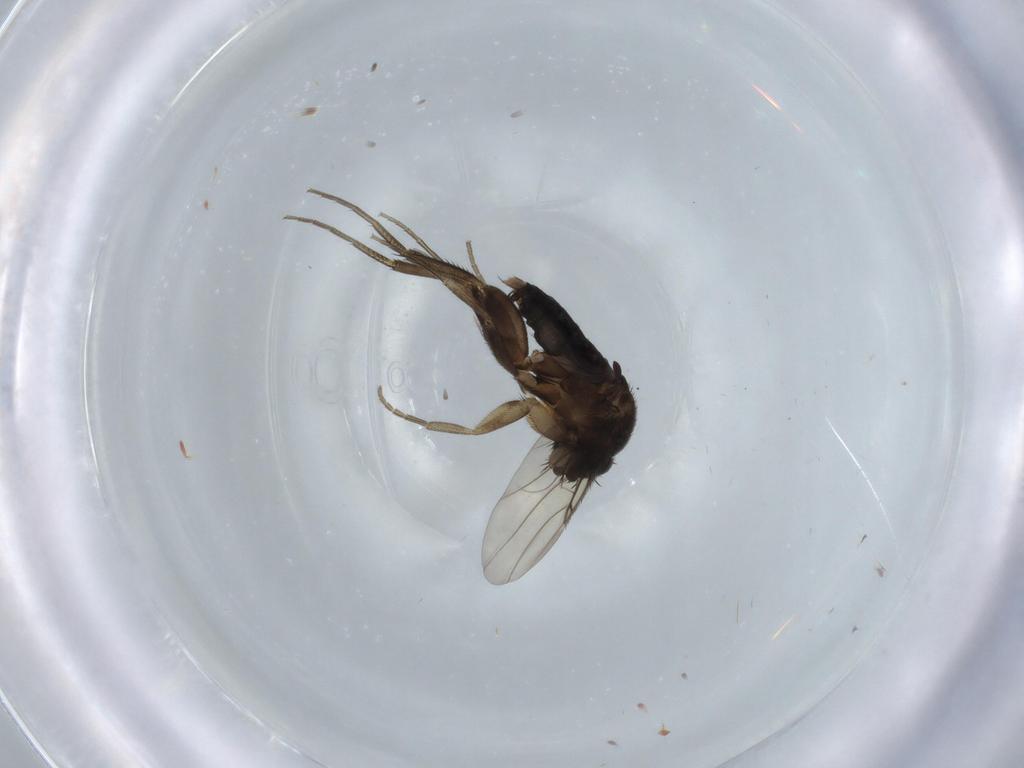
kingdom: Animalia
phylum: Arthropoda
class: Insecta
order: Diptera
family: Phoridae
